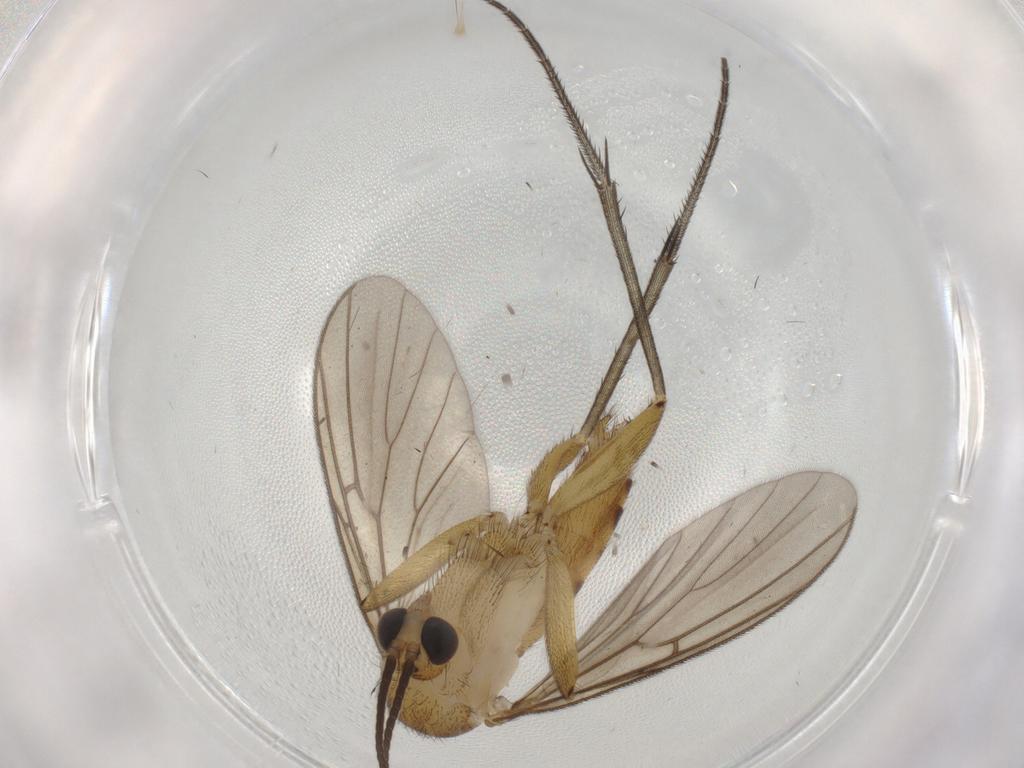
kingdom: Animalia
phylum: Arthropoda
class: Insecta
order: Diptera
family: Mycetophilidae
